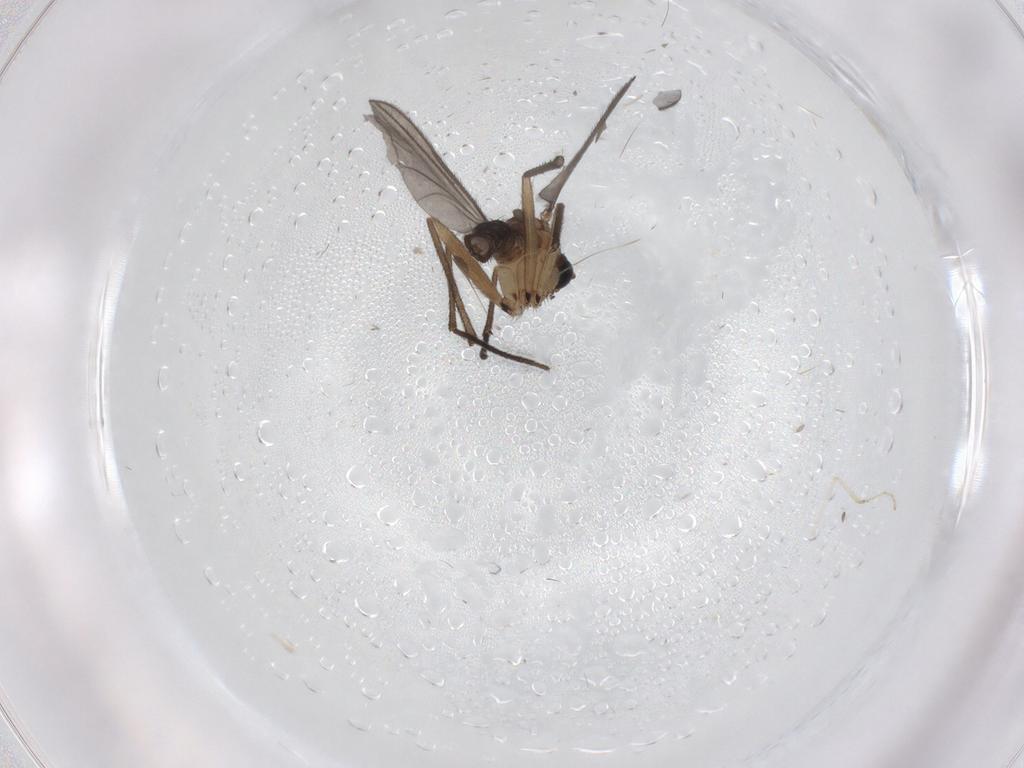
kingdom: Animalia
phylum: Arthropoda
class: Insecta
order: Diptera
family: Cecidomyiidae
